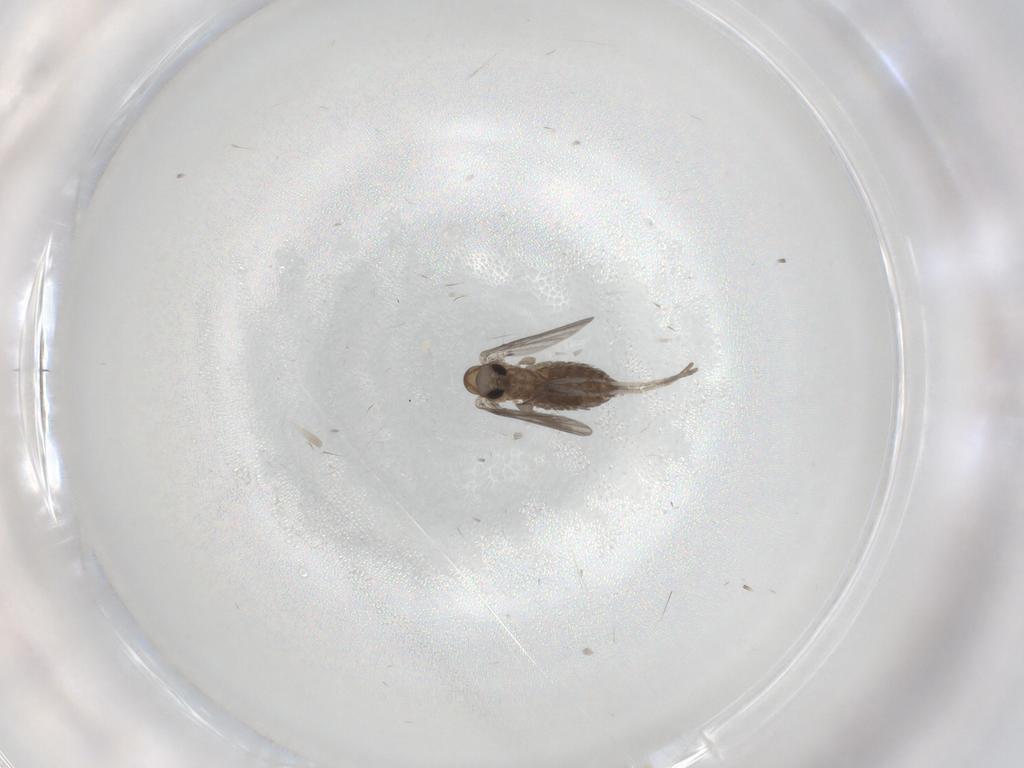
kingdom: Animalia
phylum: Arthropoda
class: Insecta
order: Diptera
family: Sciaridae
